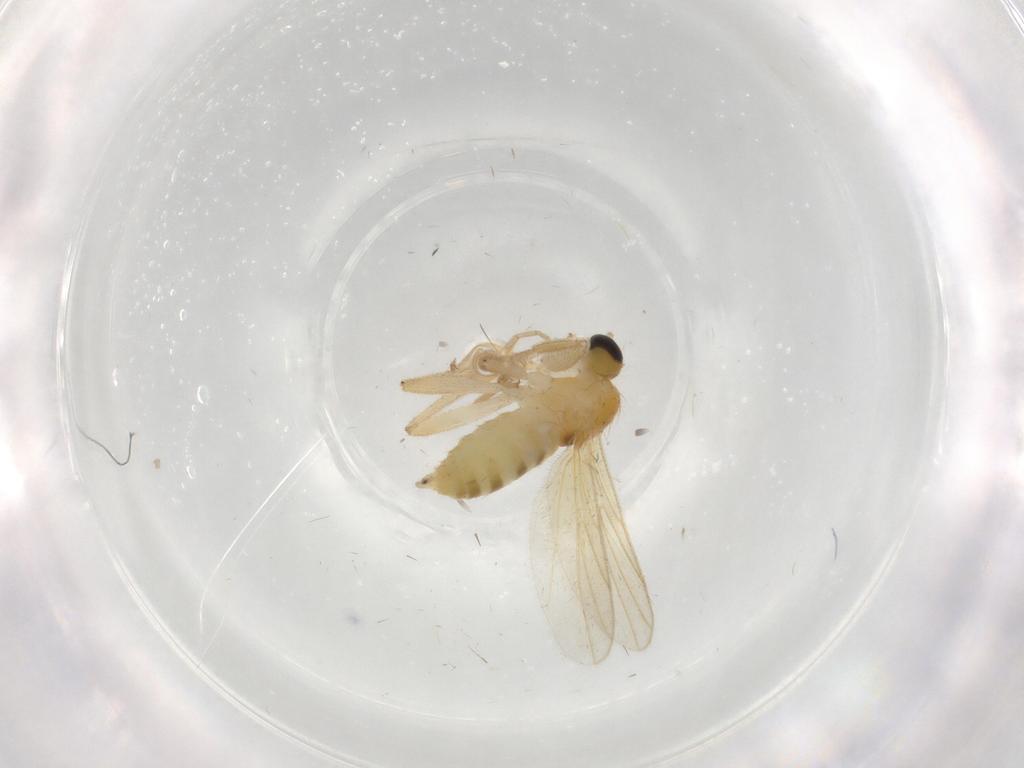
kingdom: Animalia
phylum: Arthropoda
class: Insecta
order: Diptera
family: Hybotidae
